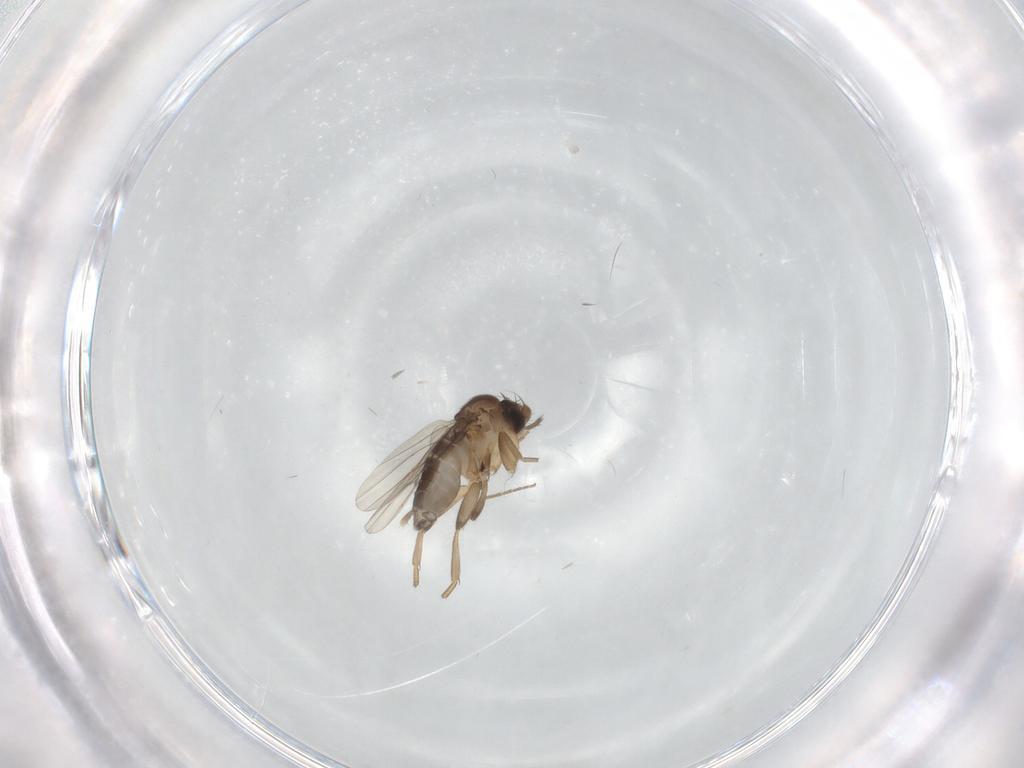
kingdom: Animalia
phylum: Arthropoda
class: Insecta
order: Diptera
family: Phoridae
